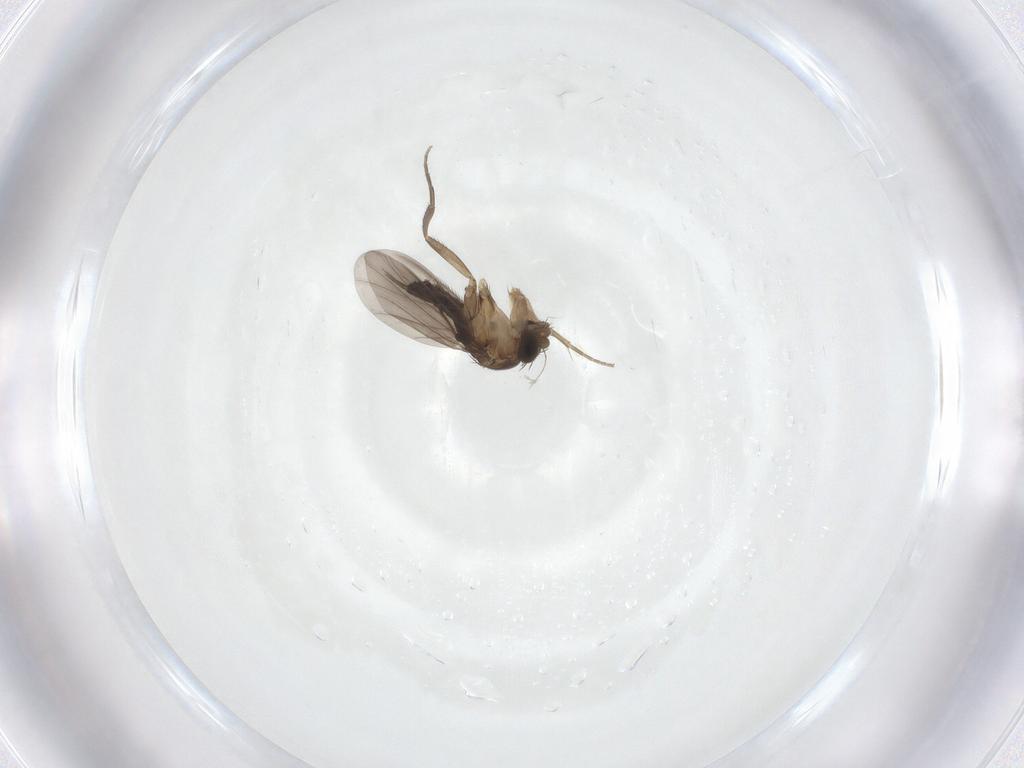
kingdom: Animalia
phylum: Arthropoda
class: Insecta
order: Diptera
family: Phoridae
